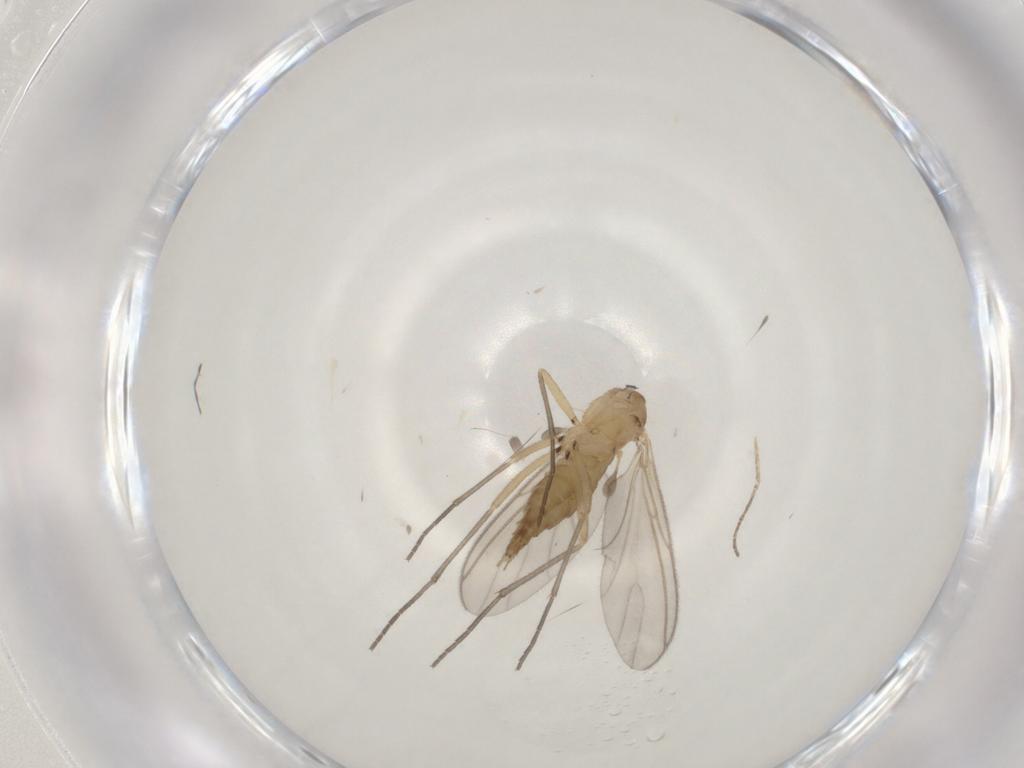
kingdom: Animalia
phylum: Arthropoda
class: Insecta
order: Diptera
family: Sciaridae
